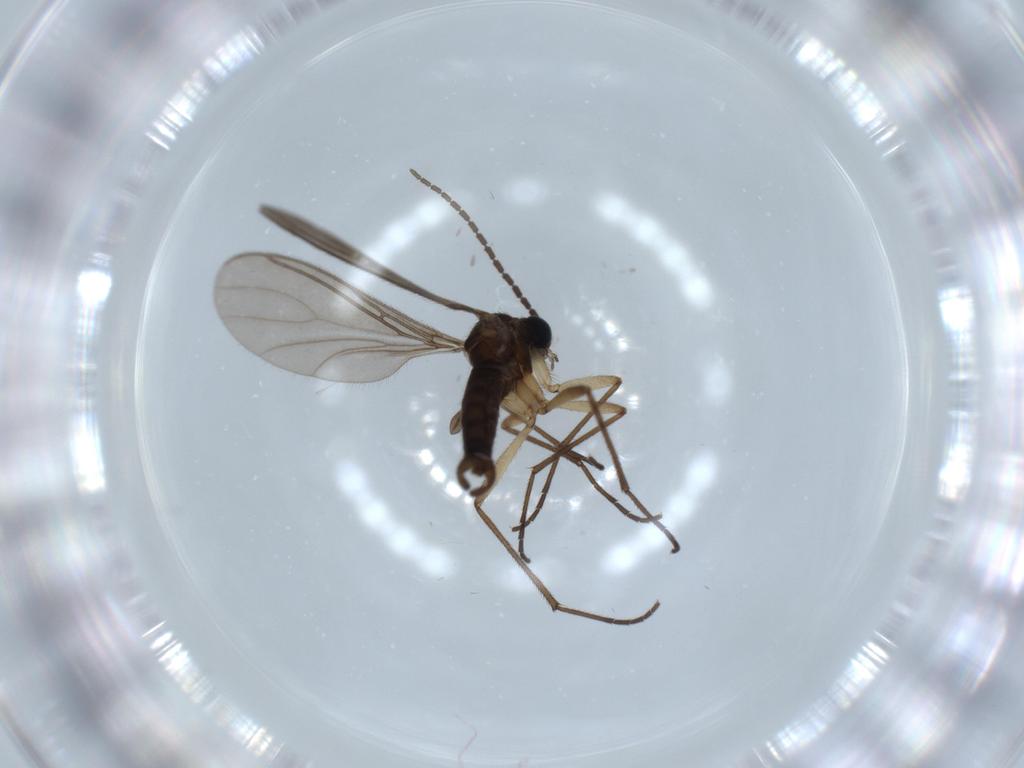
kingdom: Animalia
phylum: Arthropoda
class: Insecta
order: Diptera
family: Sciaridae
